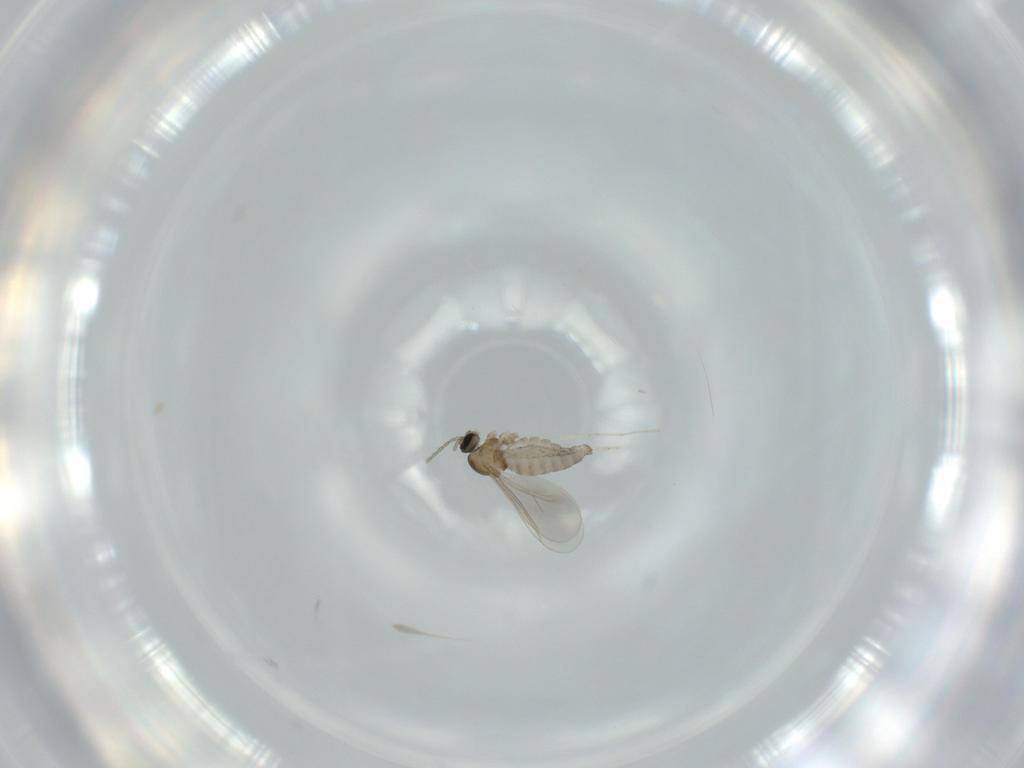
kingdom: Animalia
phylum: Arthropoda
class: Insecta
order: Diptera
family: Cecidomyiidae
